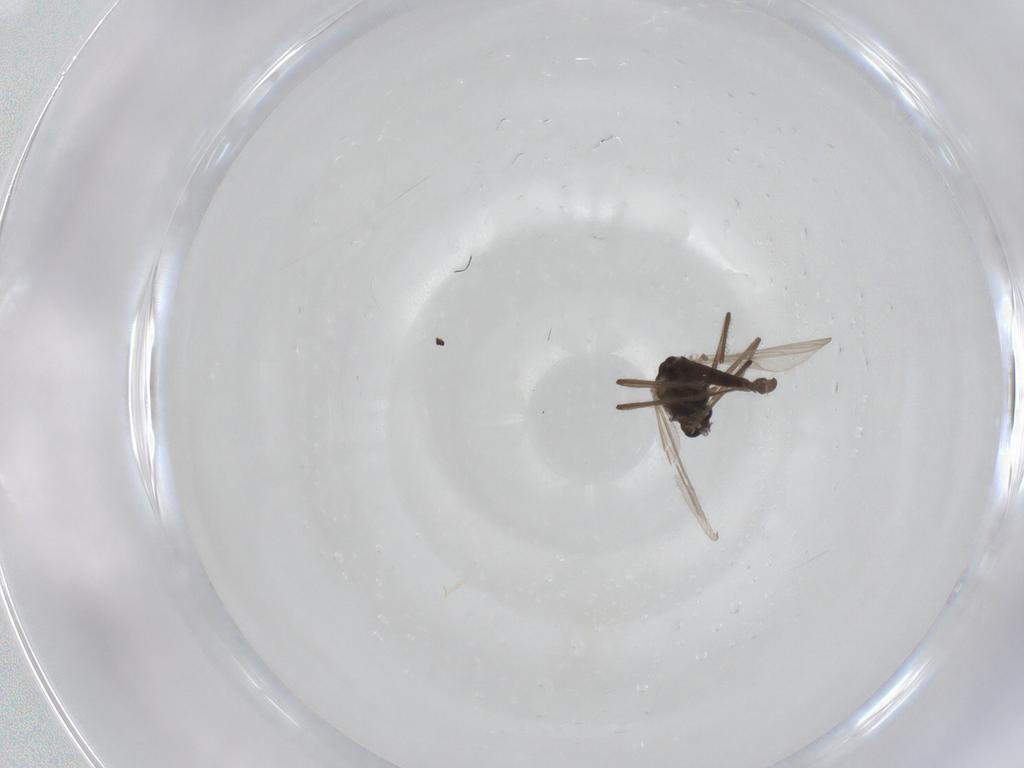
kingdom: Animalia
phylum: Arthropoda
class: Insecta
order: Diptera
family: Chironomidae
